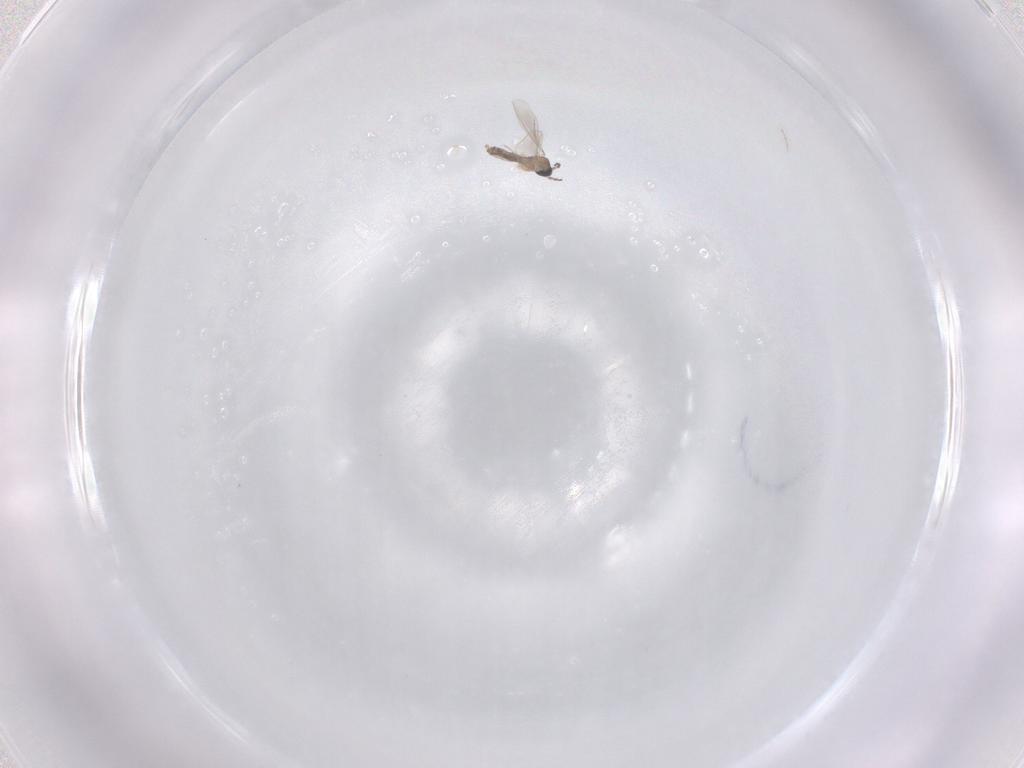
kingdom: Animalia
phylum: Arthropoda
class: Insecta
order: Diptera
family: Cecidomyiidae
